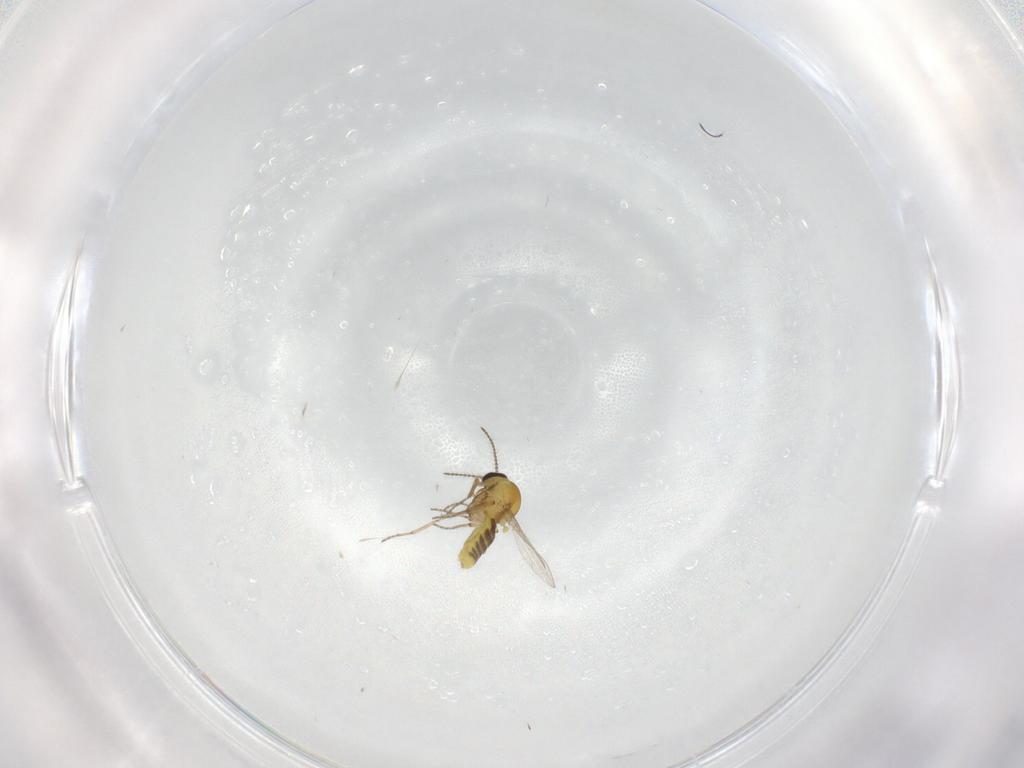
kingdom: Animalia
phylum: Arthropoda
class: Insecta
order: Diptera
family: Ceratopogonidae
